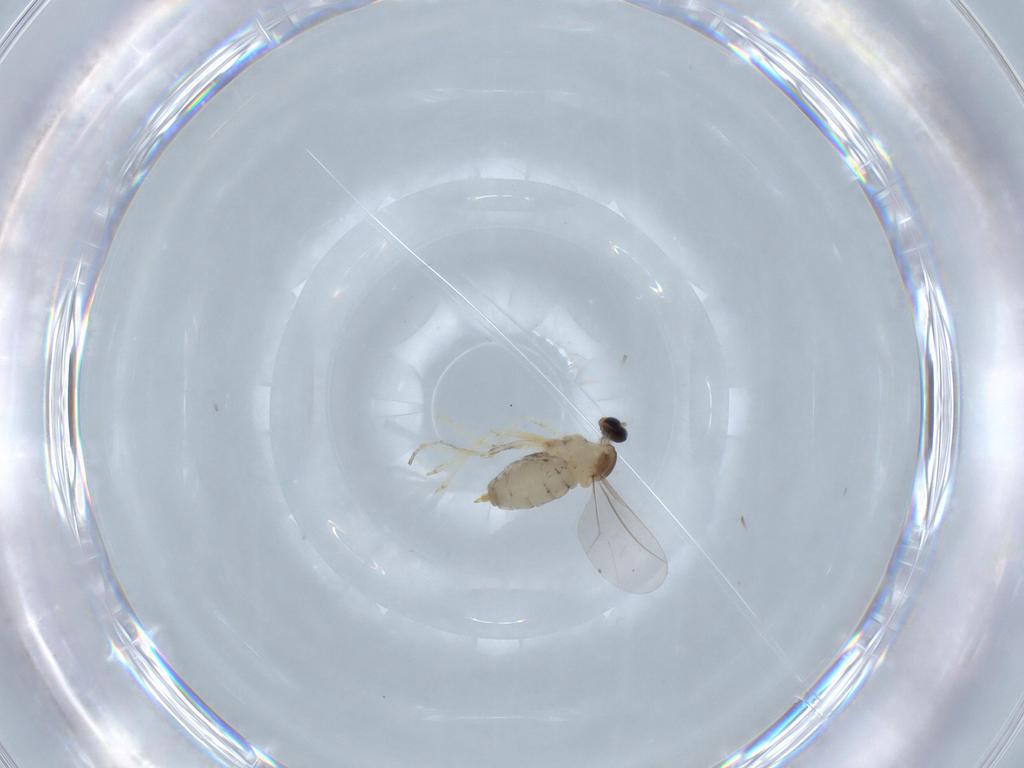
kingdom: Animalia
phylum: Arthropoda
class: Insecta
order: Diptera
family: Cecidomyiidae
